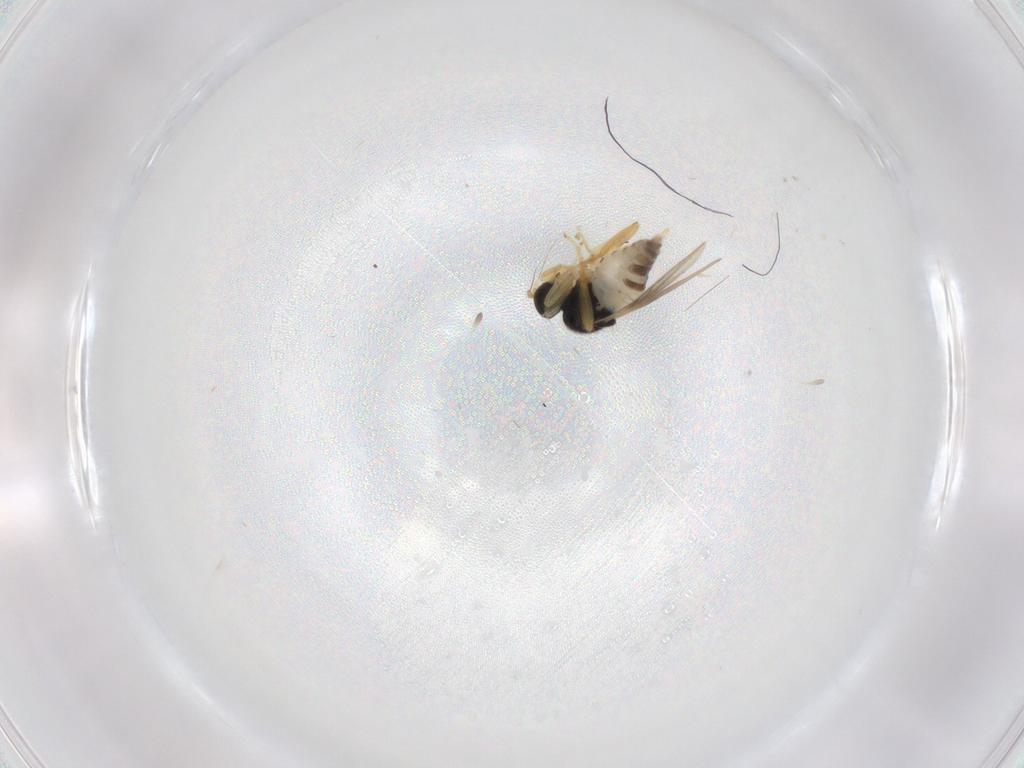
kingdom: Animalia
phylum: Arthropoda
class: Insecta
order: Diptera
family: Hybotidae
